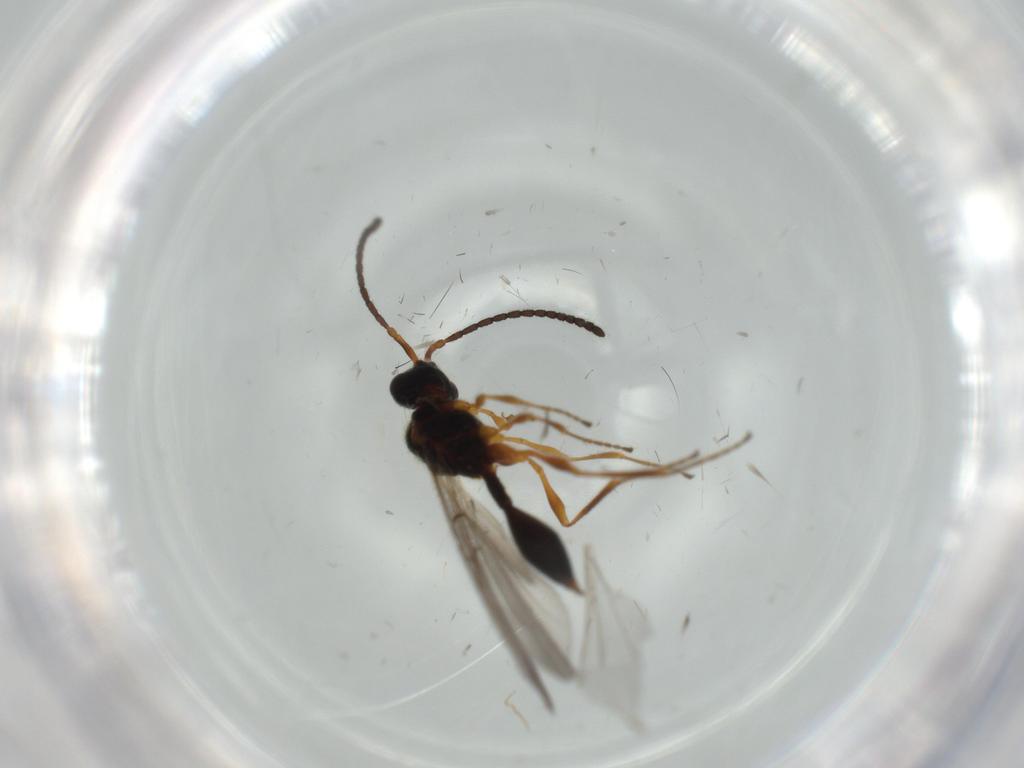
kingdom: Animalia
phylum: Arthropoda
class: Insecta
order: Hymenoptera
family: Diapriidae
